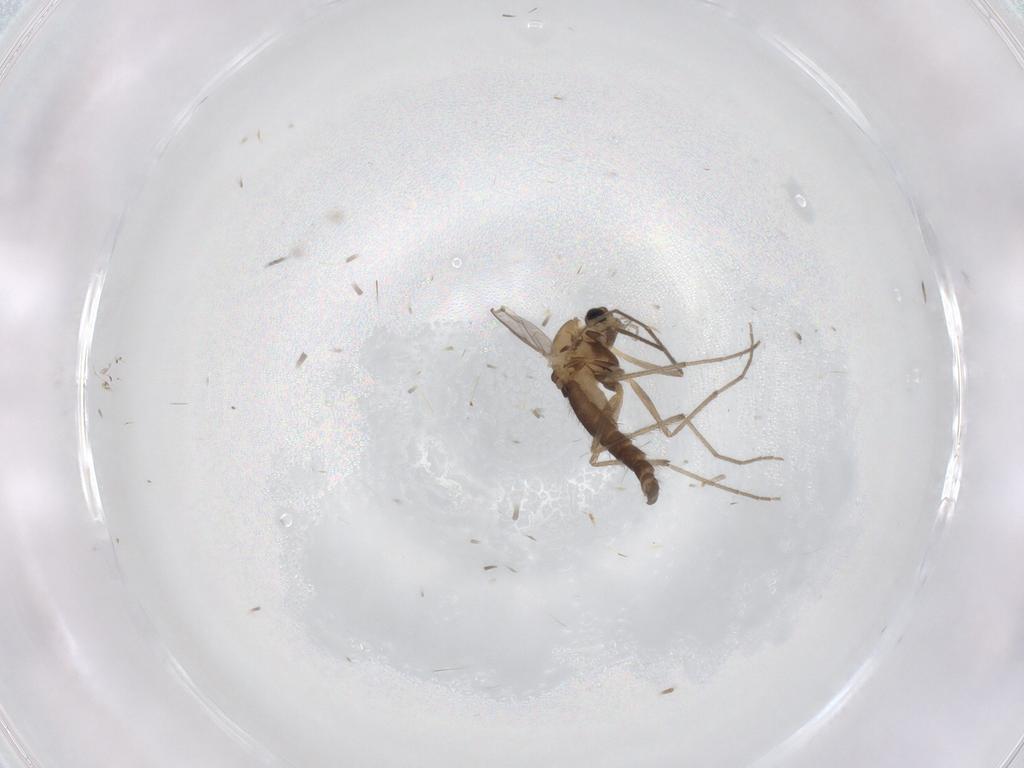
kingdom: Animalia
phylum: Arthropoda
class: Insecta
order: Diptera
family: Chironomidae
